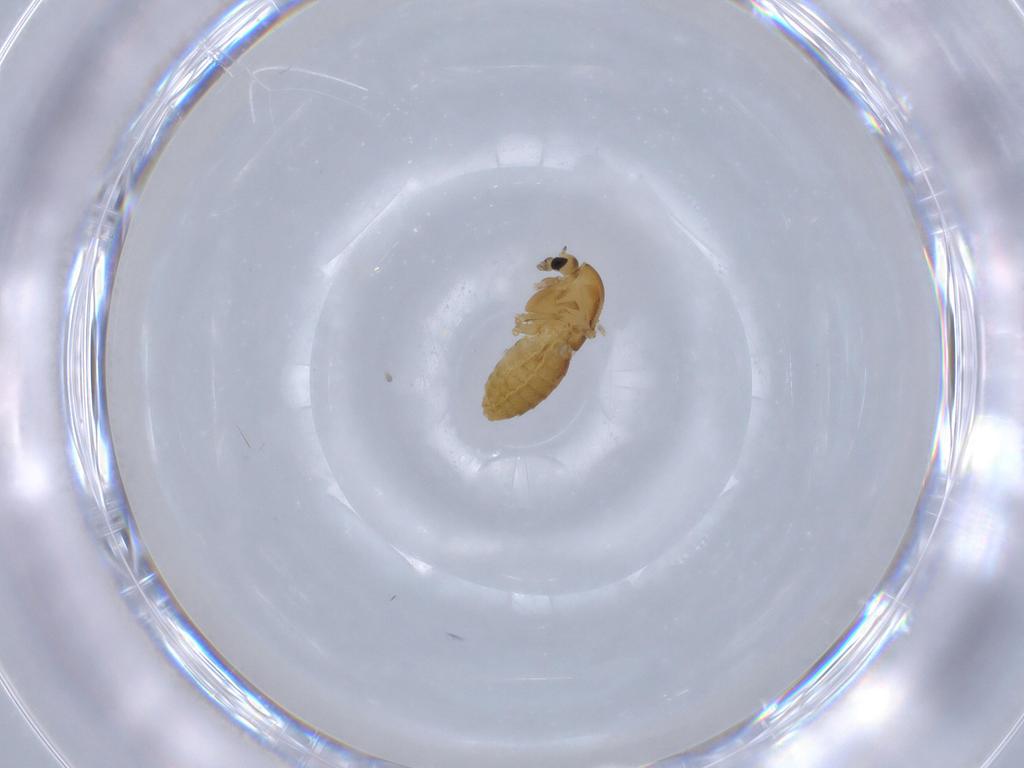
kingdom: Animalia
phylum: Arthropoda
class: Insecta
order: Diptera
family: Chironomidae
